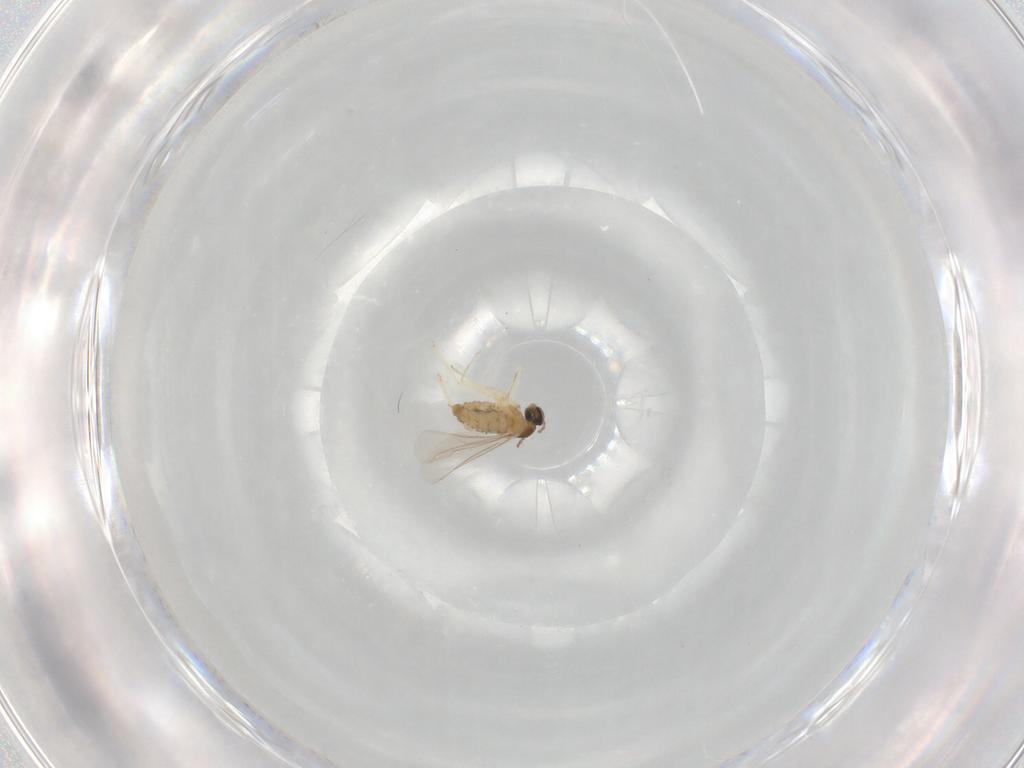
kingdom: Animalia
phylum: Arthropoda
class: Insecta
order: Diptera
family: Cecidomyiidae
